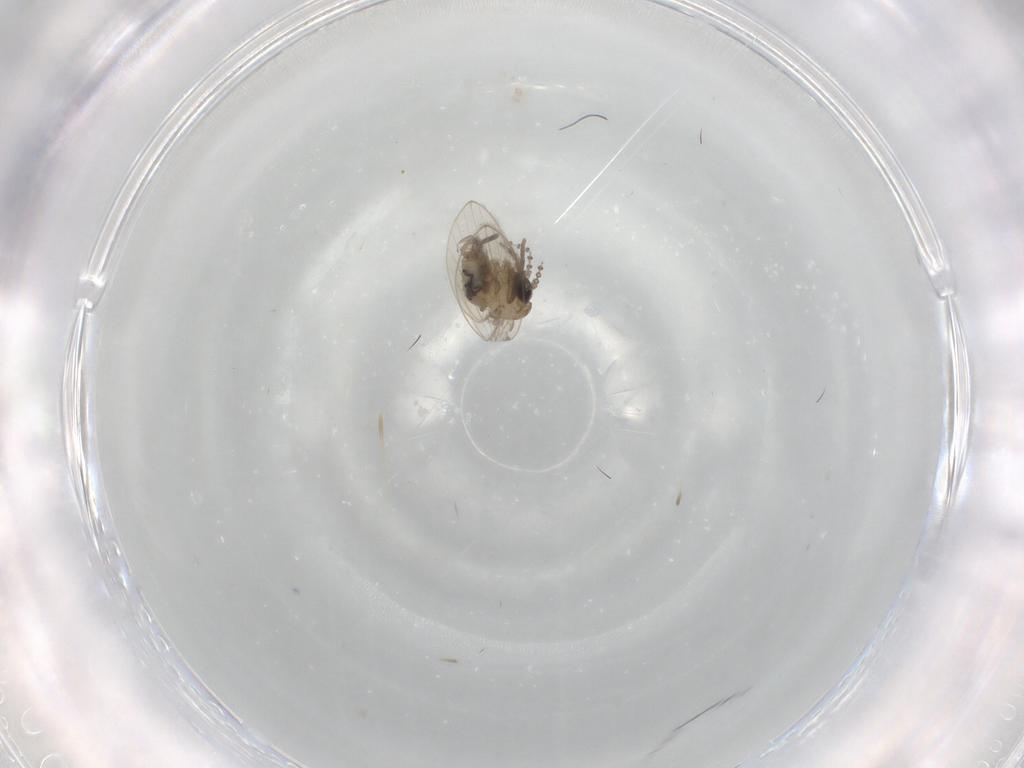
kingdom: Animalia
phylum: Arthropoda
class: Insecta
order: Diptera
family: Psychodidae
